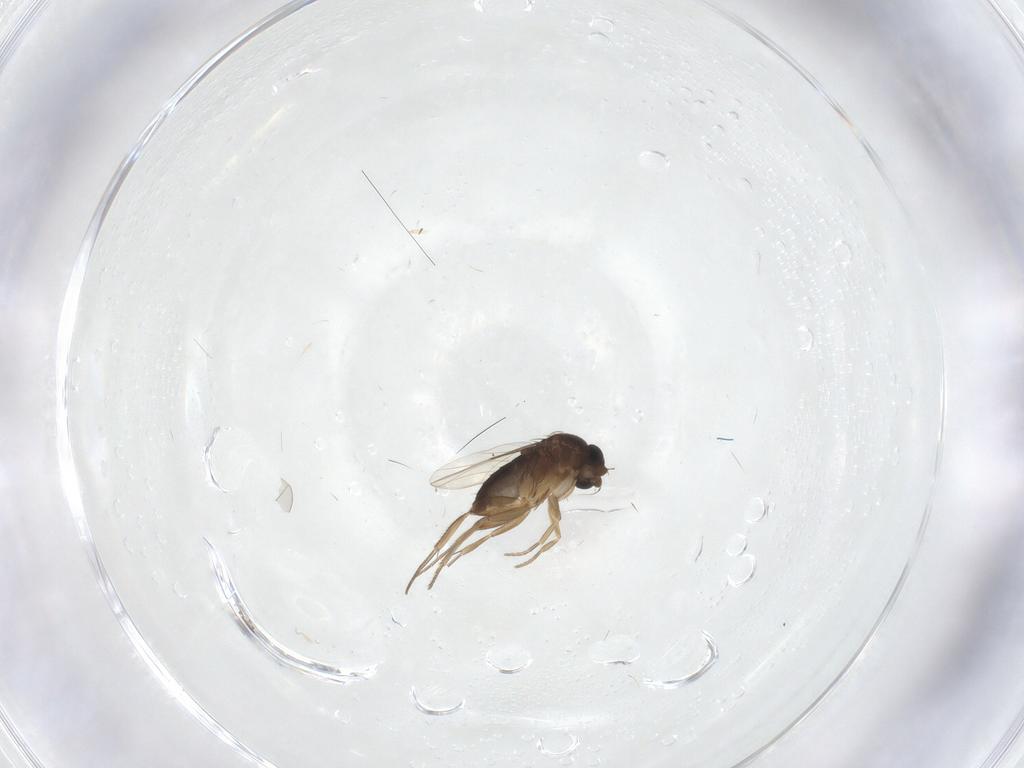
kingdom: Animalia
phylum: Arthropoda
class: Insecta
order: Diptera
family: Phoridae
